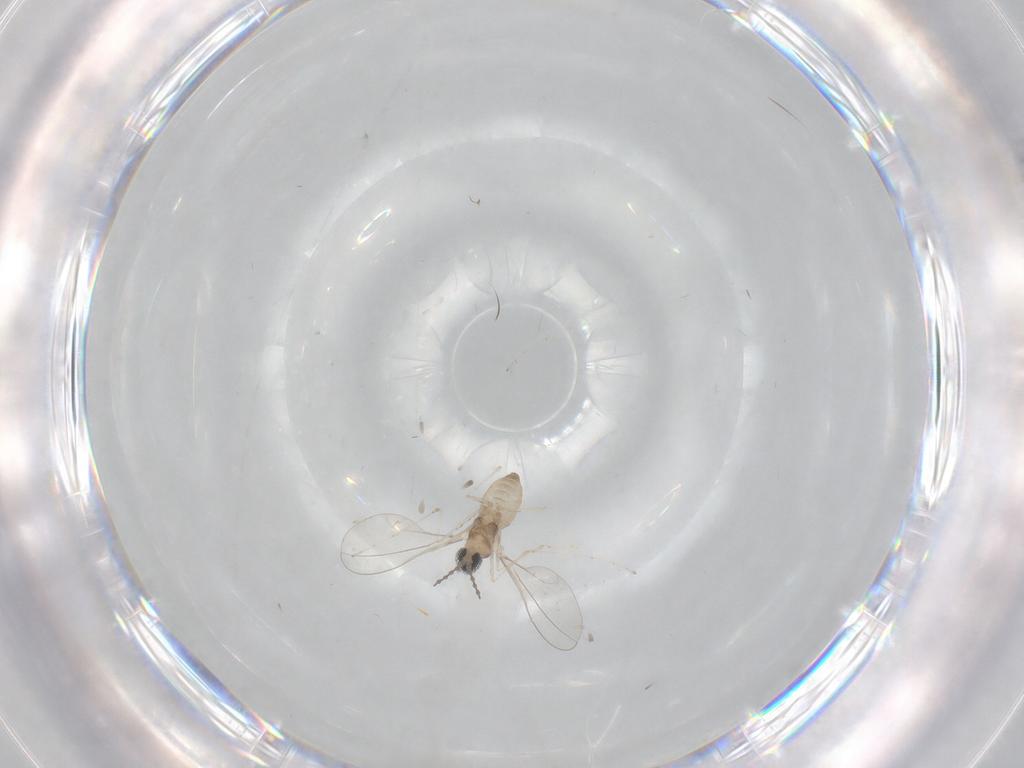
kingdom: Animalia
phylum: Arthropoda
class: Insecta
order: Diptera
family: Cecidomyiidae
